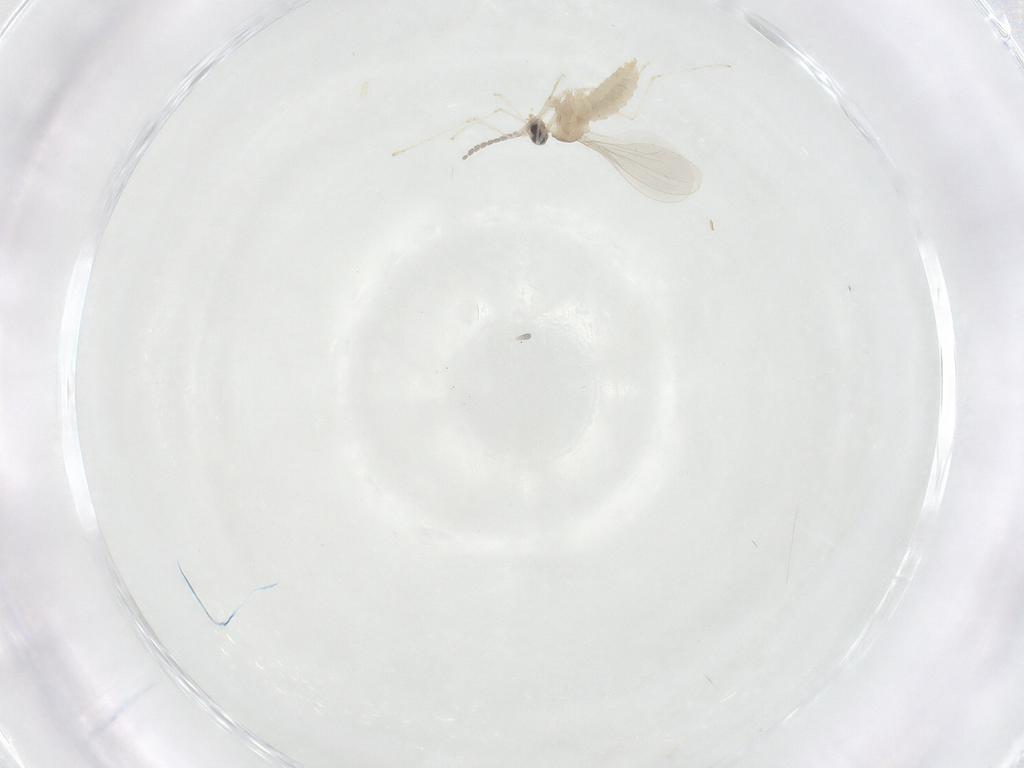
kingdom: Animalia
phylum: Arthropoda
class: Insecta
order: Diptera
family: Cecidomyiidae
